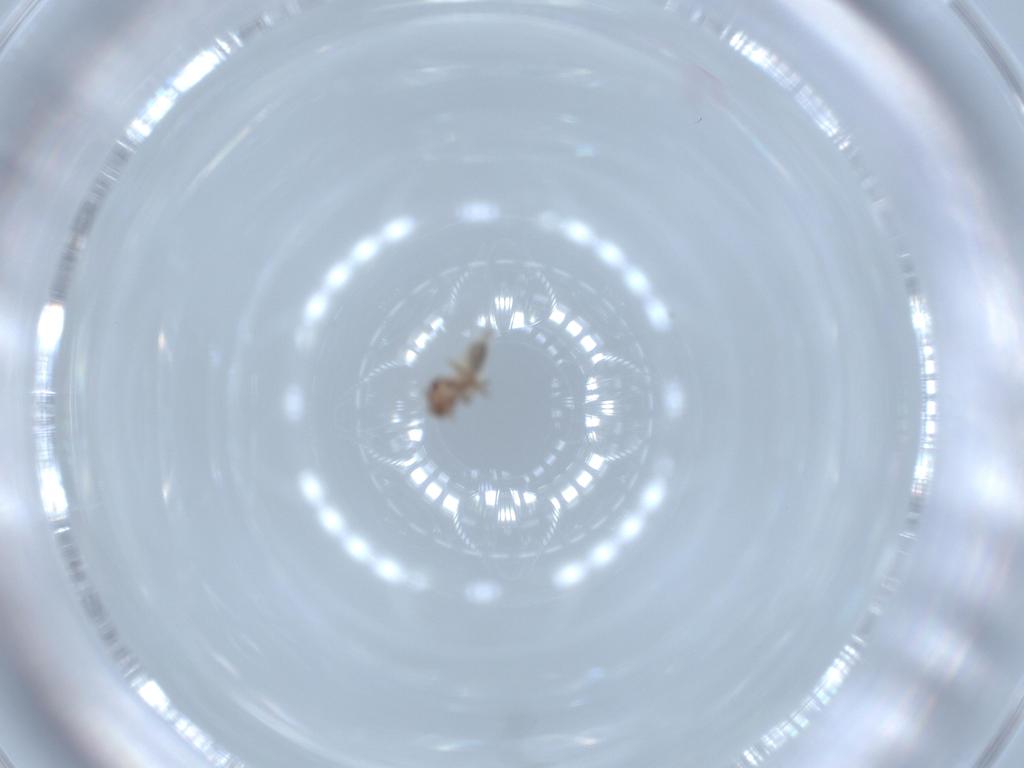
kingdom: Animalia
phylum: Arthropoda
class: Insecta
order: Psocodea
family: Lepidopsocidae
